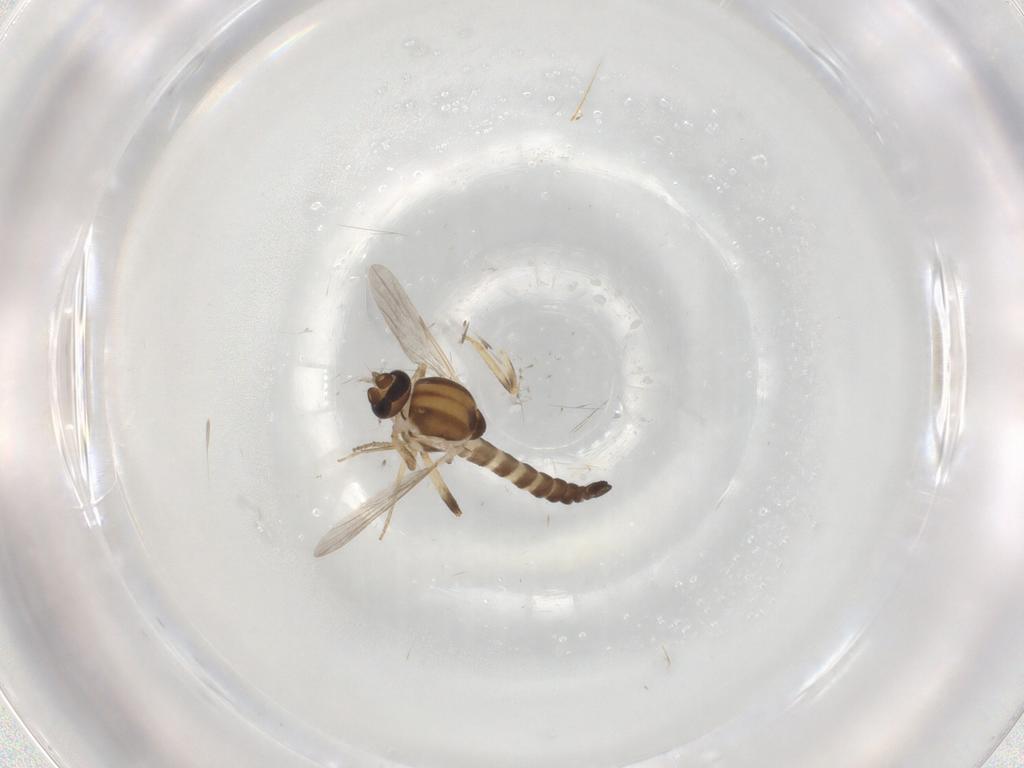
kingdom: Animalia
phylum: Arthropoda
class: Insecta
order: Diptera
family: Ceratopogonidae
